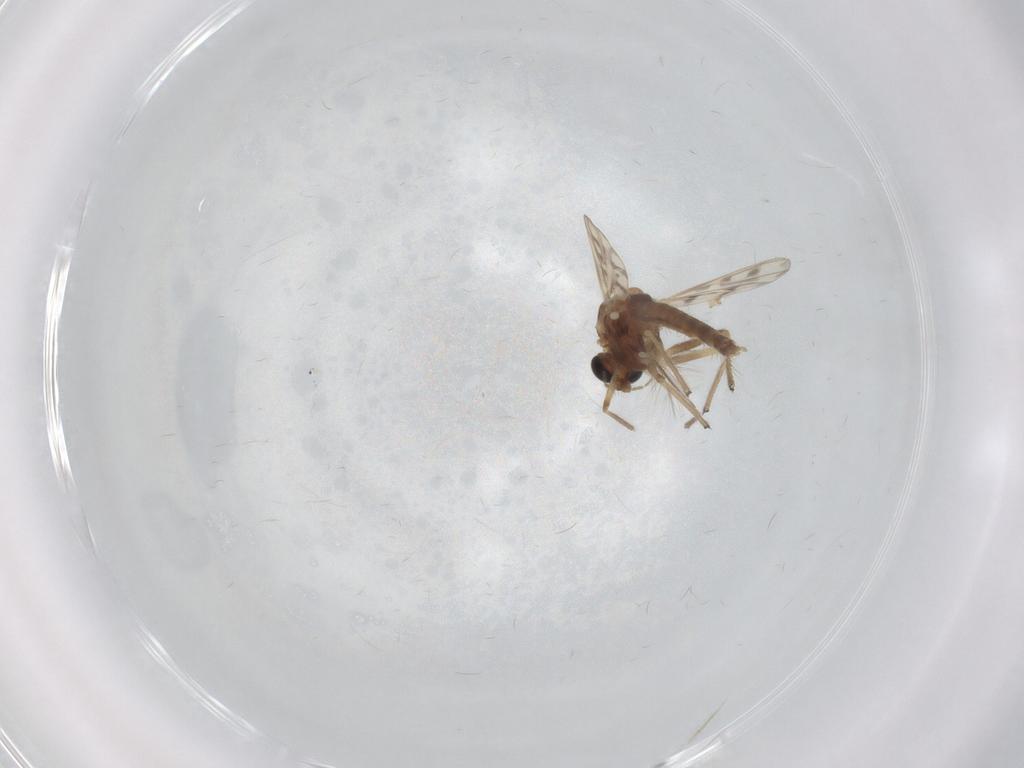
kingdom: Animalia
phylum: Arthropoda
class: Insecta
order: Diptera
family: Chironomidae
